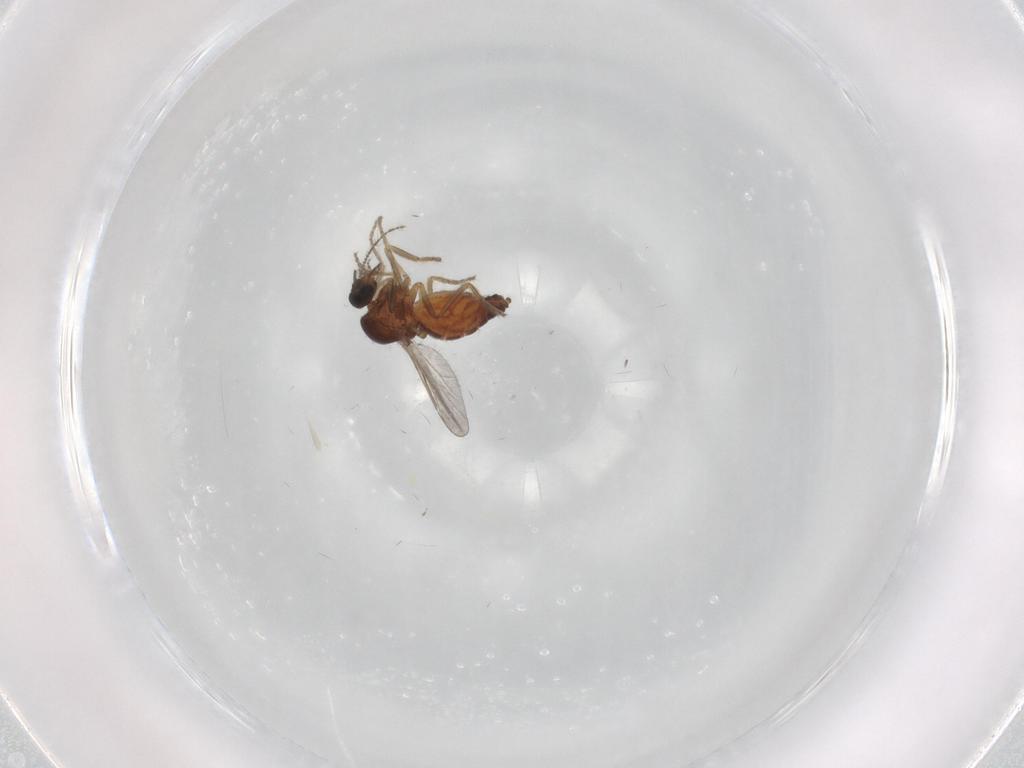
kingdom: Animalia
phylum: Arthropoda
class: Insecta
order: Diptera
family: Ceratopogonidae
